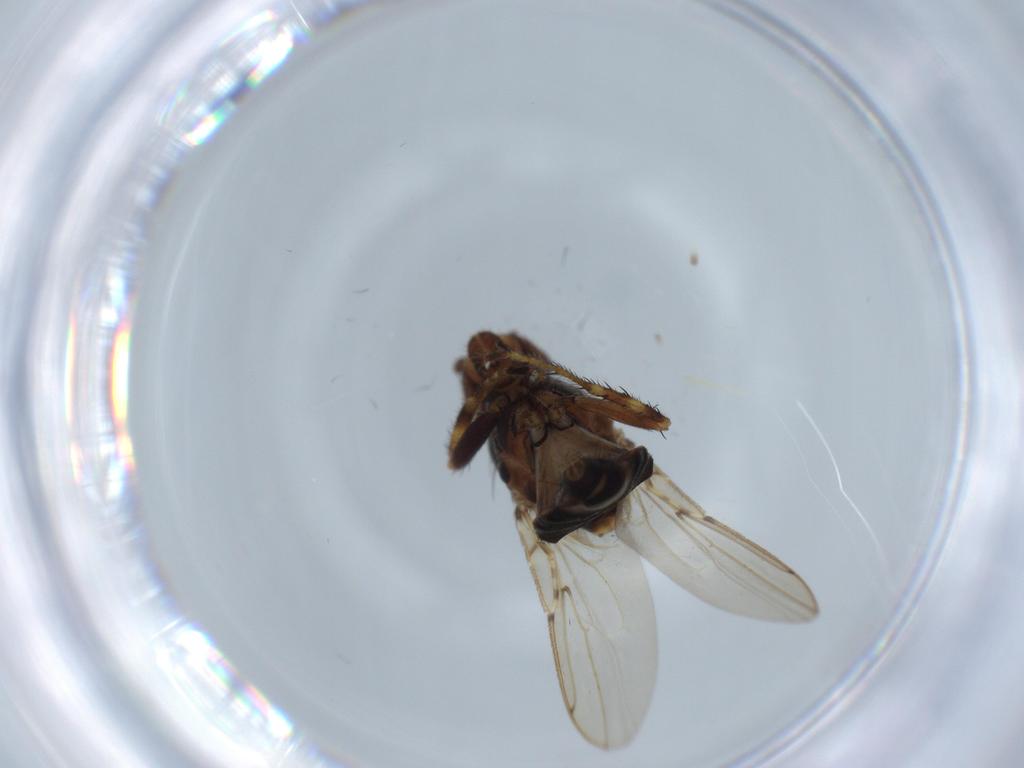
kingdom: Animalia
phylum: Arthropoda
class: Insecta
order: Diptera
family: Sphaeroceridae
